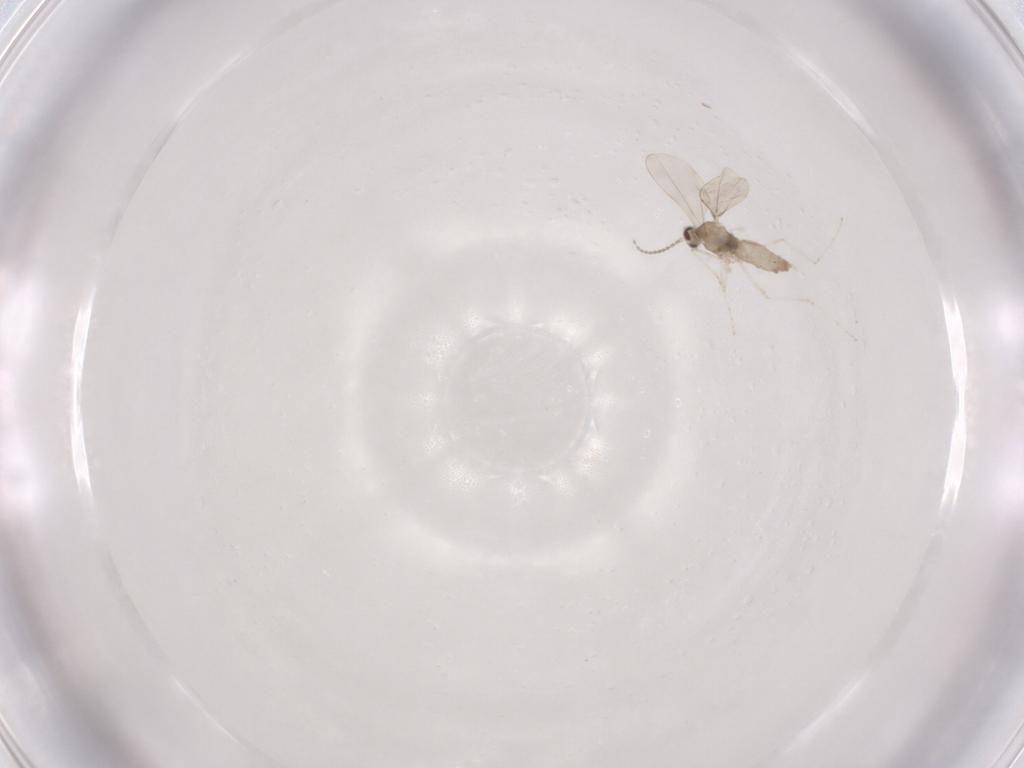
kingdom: Animalia
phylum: Arthropoda
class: Insecta
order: Diptera
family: Cecidomyiidae
